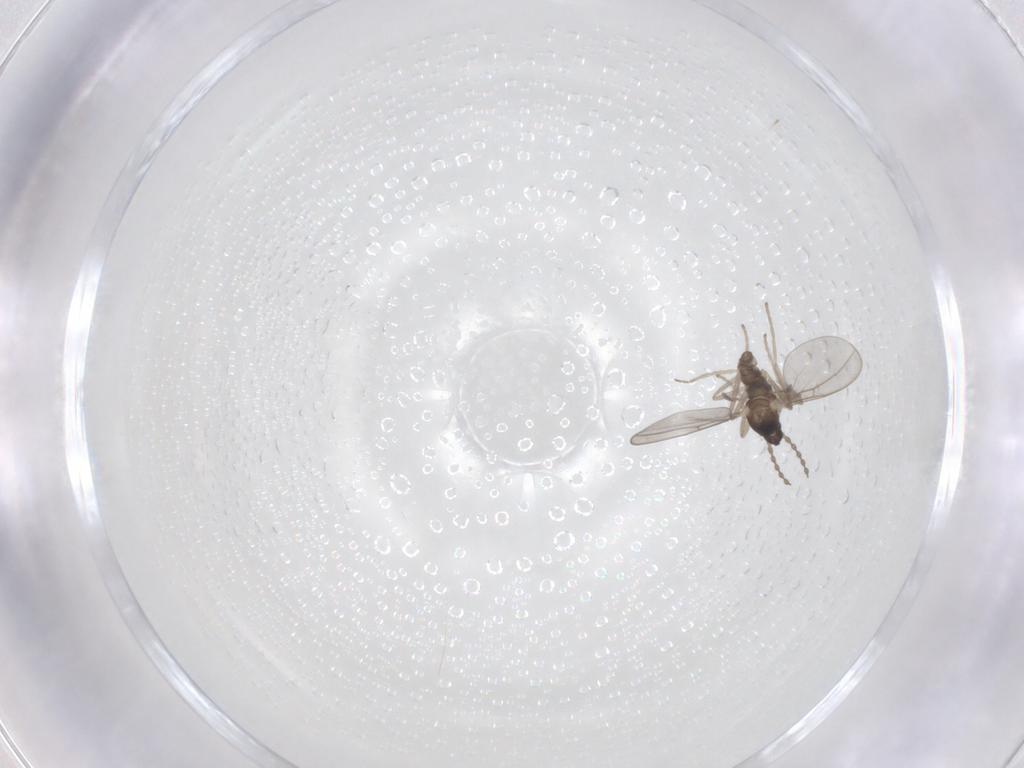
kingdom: Animalia
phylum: Arthropoda
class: Insecta
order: Diptera
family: Cecidomyiidae
